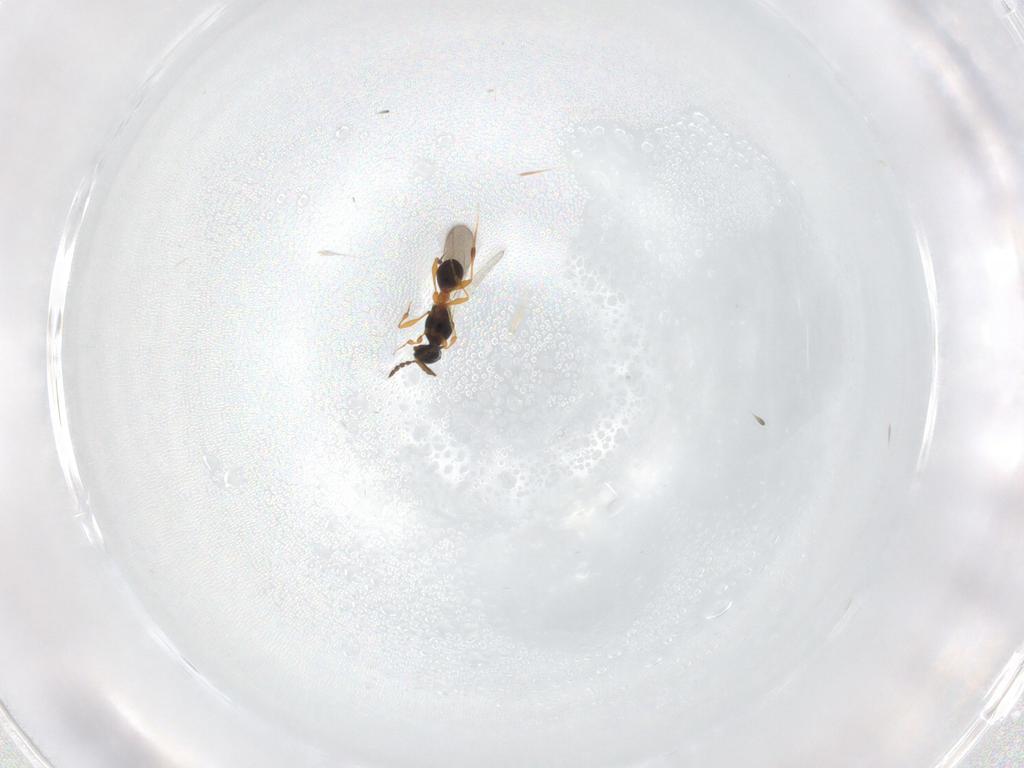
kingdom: Animalia
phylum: Arthropoda
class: Insecta
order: Hymenoptera
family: Platygastridae
